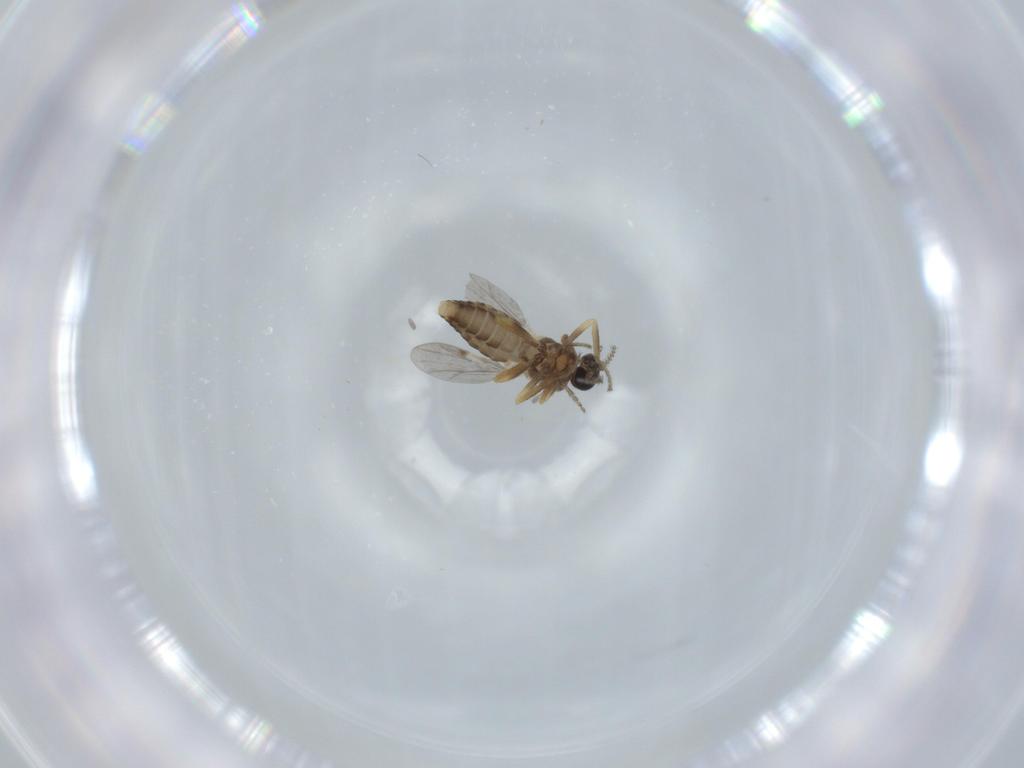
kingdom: Animalia
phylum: Arthropoda
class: Insecta
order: Diptera
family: Ceratopogonidae
